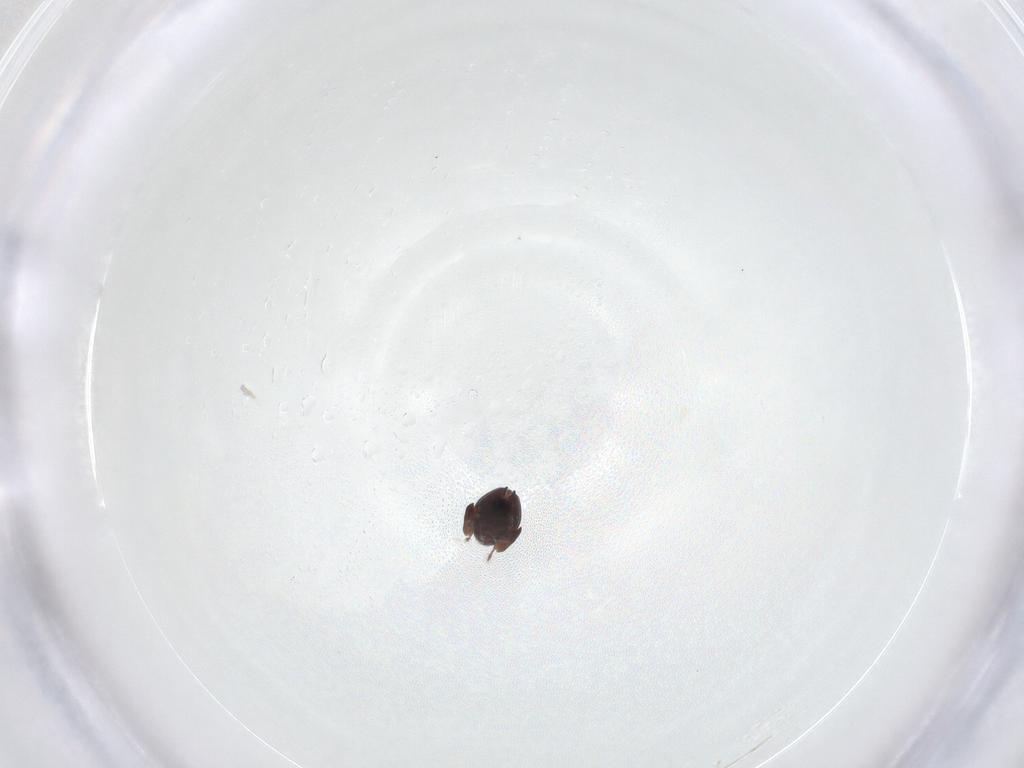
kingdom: Animalia
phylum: Arthropoda
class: Arachnida
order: Sarcoptiformes
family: Galumnidae
